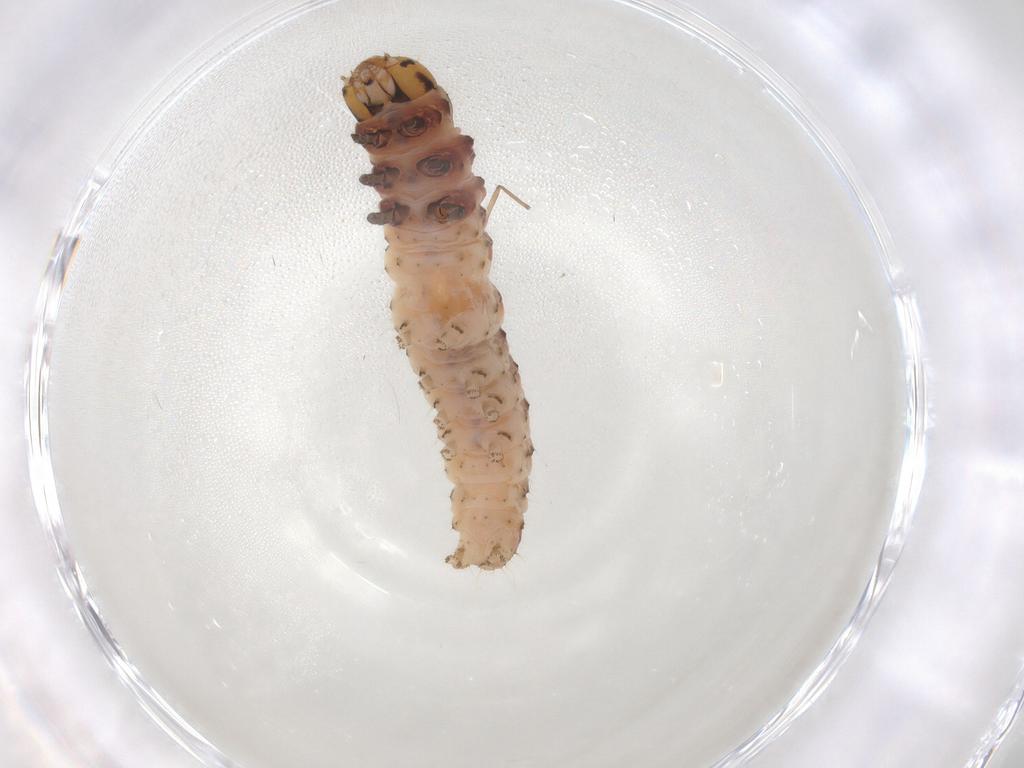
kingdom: Animalia
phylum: Arthropoda
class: Insecta
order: Lepidoptera
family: Gelechiidae
